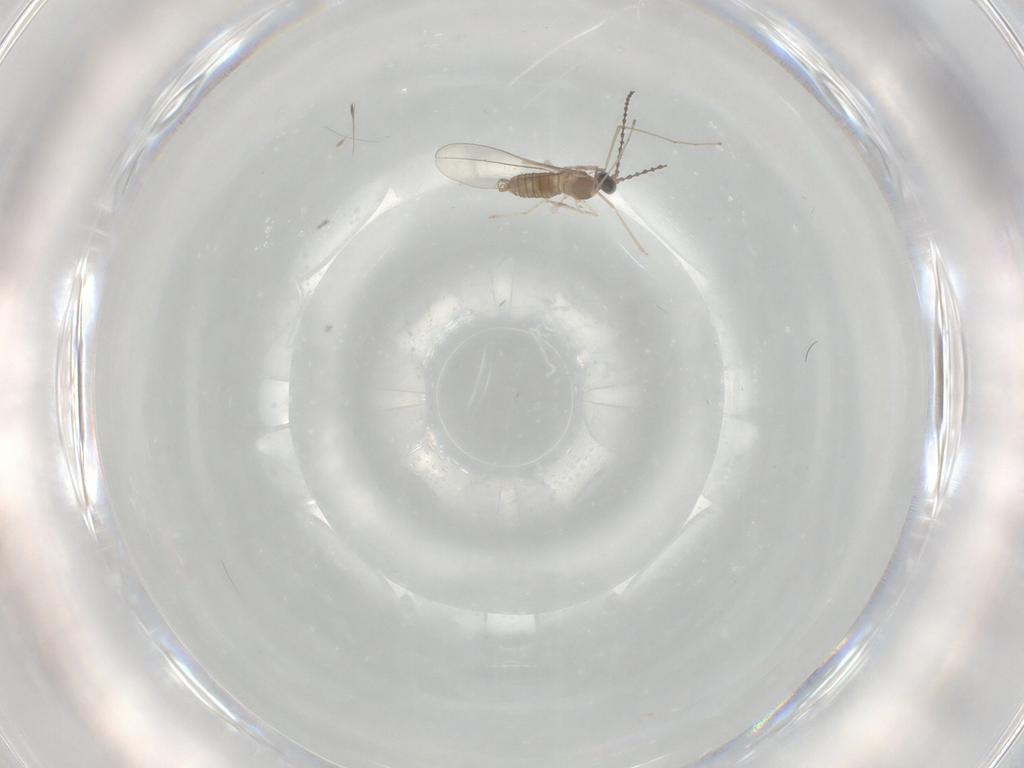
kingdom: Animalia
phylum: Arthropoda
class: Insecta
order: Diptera
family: Cecidomyiidae
